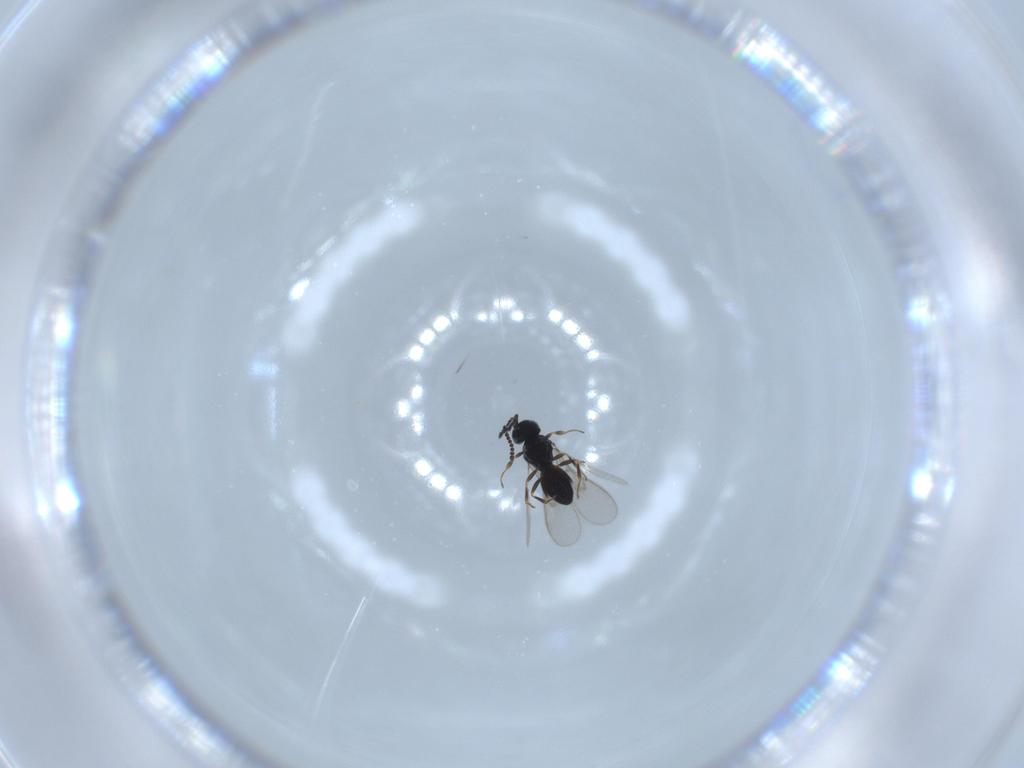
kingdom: Animalia
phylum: Arthropoda
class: Insecta
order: Hymenoptera
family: Scelionidae
